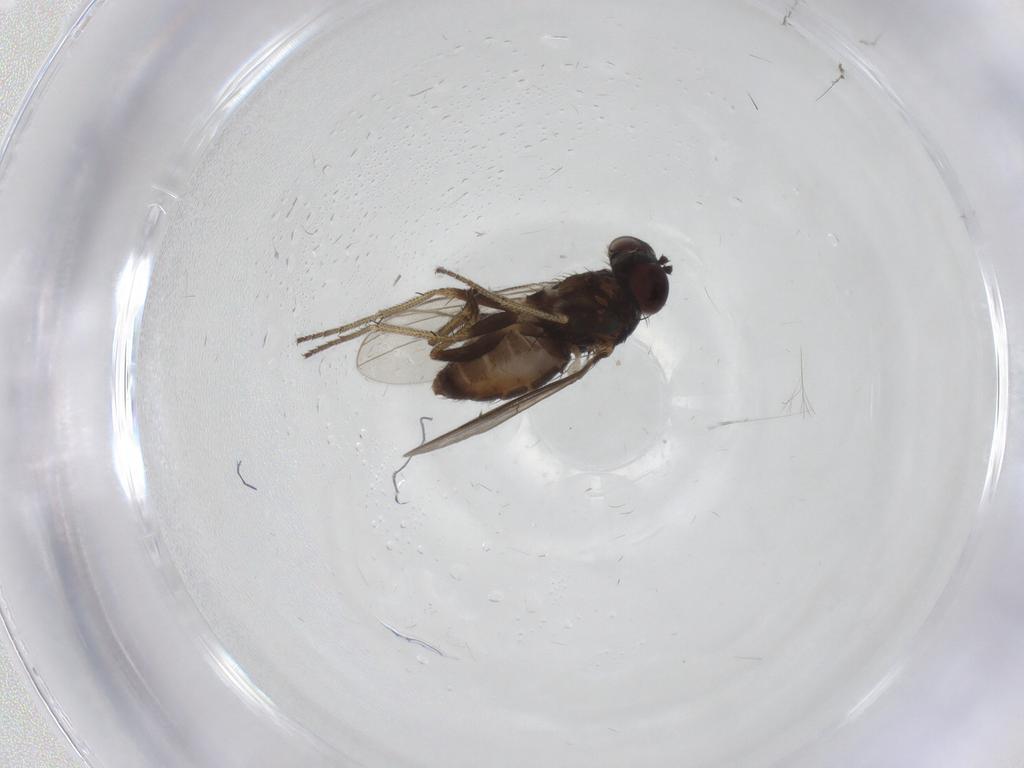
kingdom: Animalia
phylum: Arthropoda
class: Insecta
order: Diptera
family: Dolichopodidae
